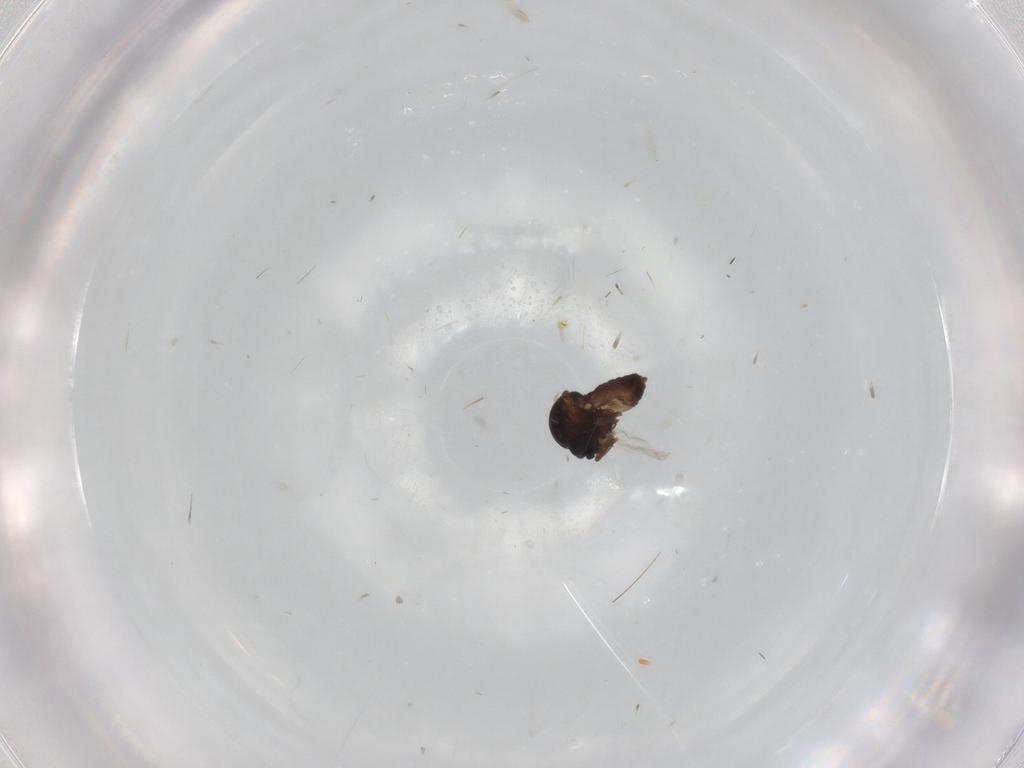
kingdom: Animalia
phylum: Arthropoda
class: Insecta
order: Diptera
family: Ceratopogonidae
